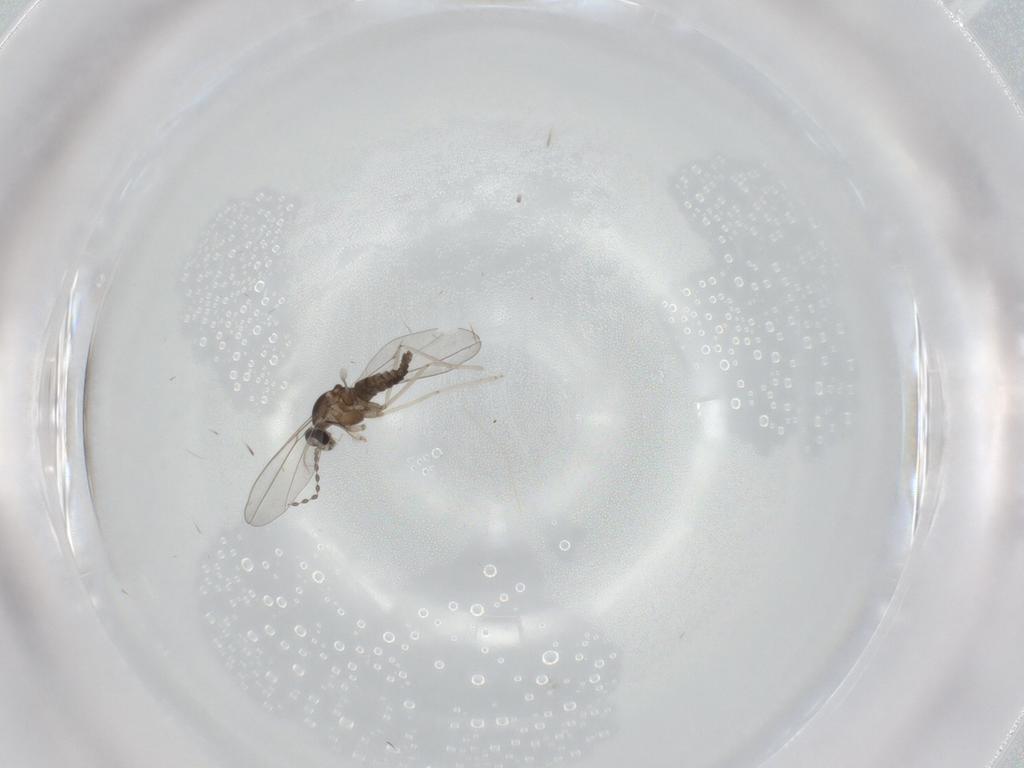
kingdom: Animalia
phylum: Arthropoda
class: Insecta
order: Diptera
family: Cecidomyiidae
